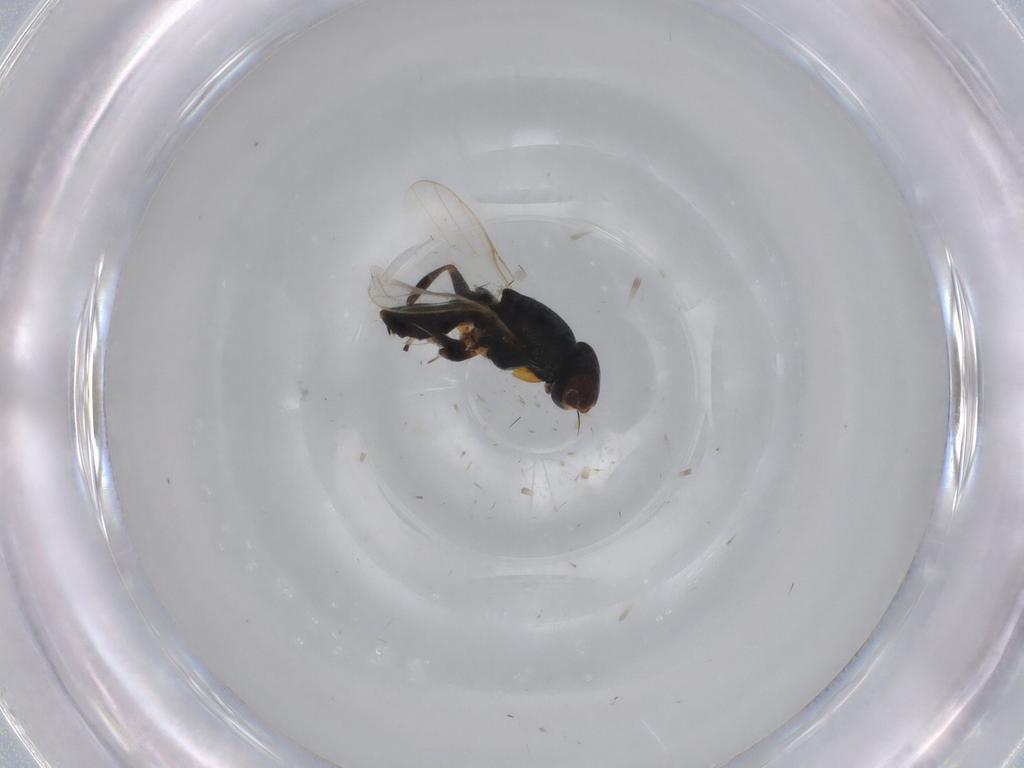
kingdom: Animalia
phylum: Arthropoda
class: Insecta
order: Diptera
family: Chloropidae
